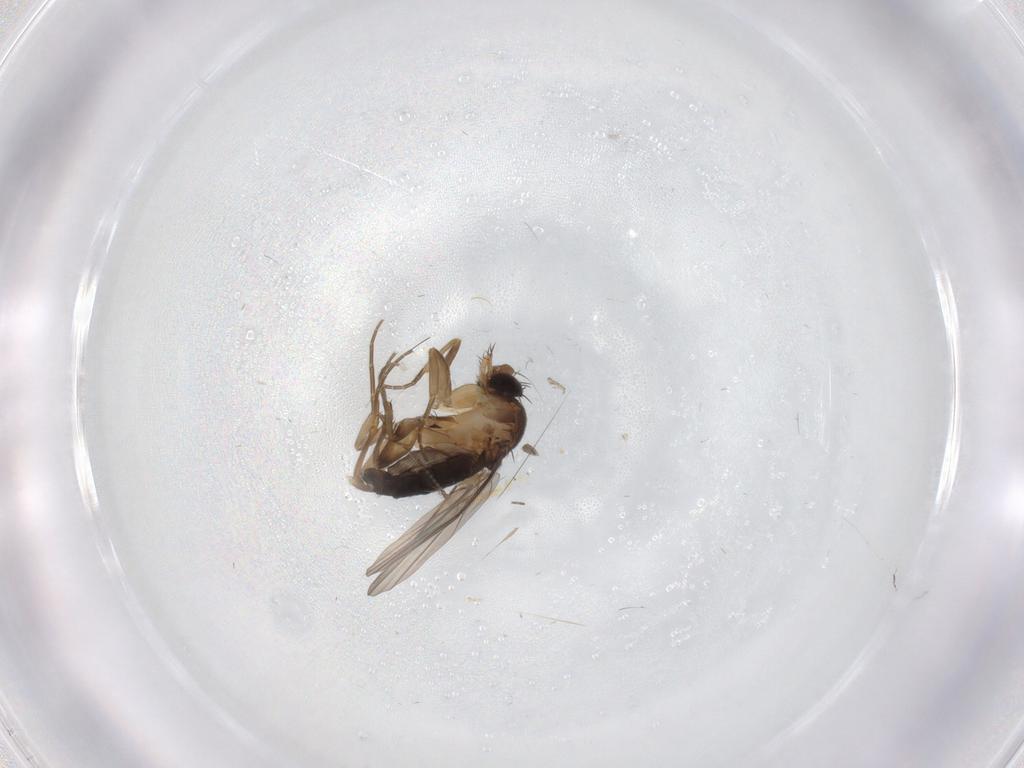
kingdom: Animalia
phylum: Arthropoda
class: Insecta
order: Diptera
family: Phoridae
